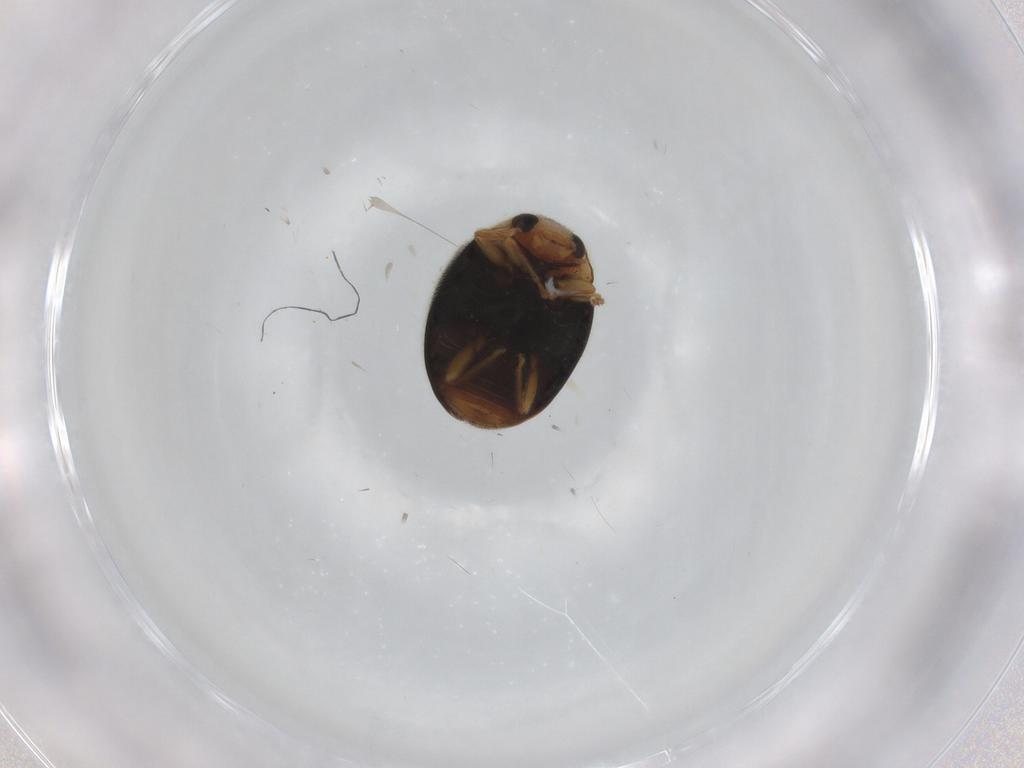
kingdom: Animalia
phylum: Arthropoda
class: Insecta
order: Coleoptera
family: Coccinellidae
